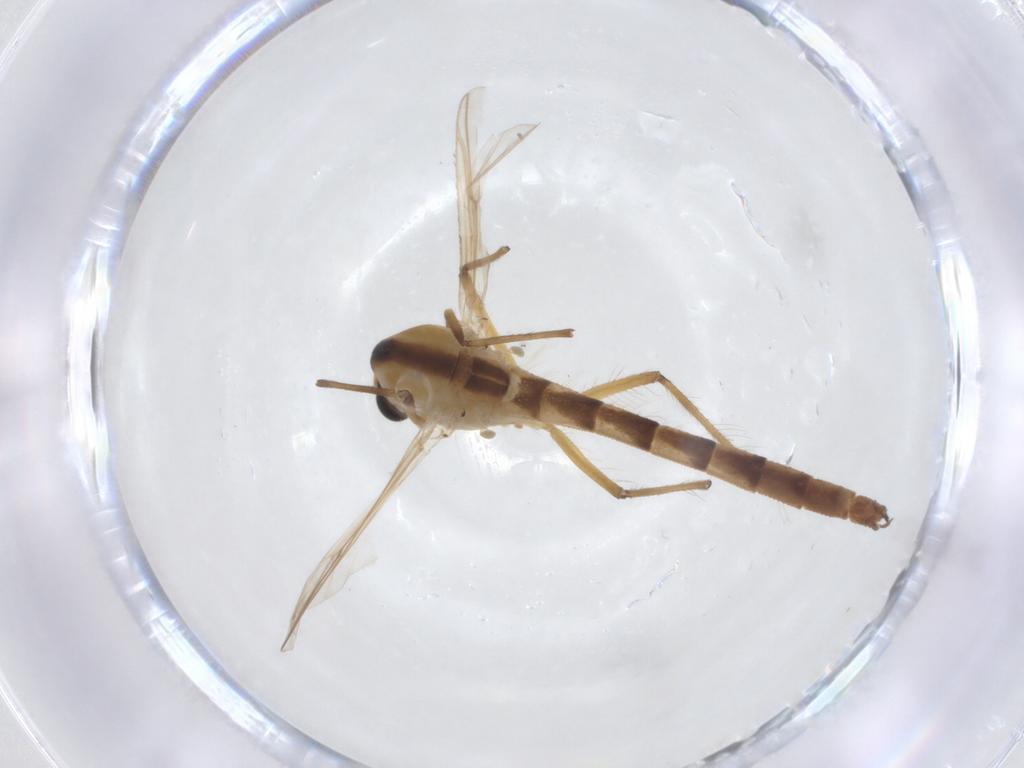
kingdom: Animalia
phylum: Arthropoda
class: Insecta
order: Diptera
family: Chironomidae
